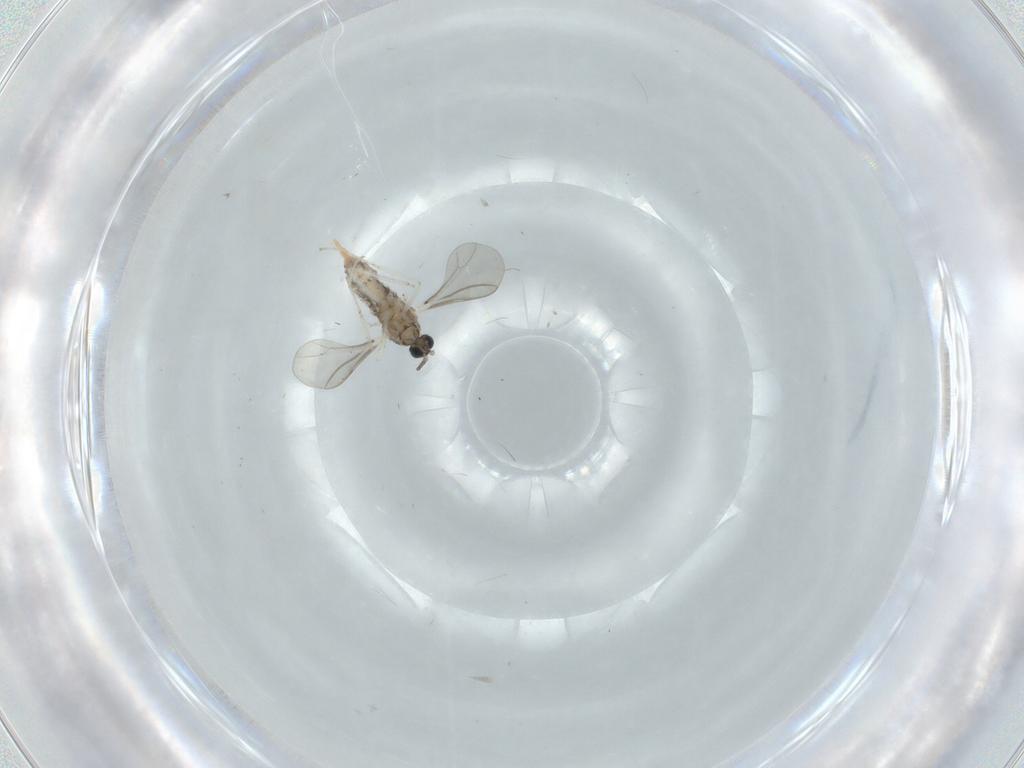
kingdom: Animalia
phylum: Arthropoda
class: Insecta
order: Diptera
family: Cecidomyiidae
